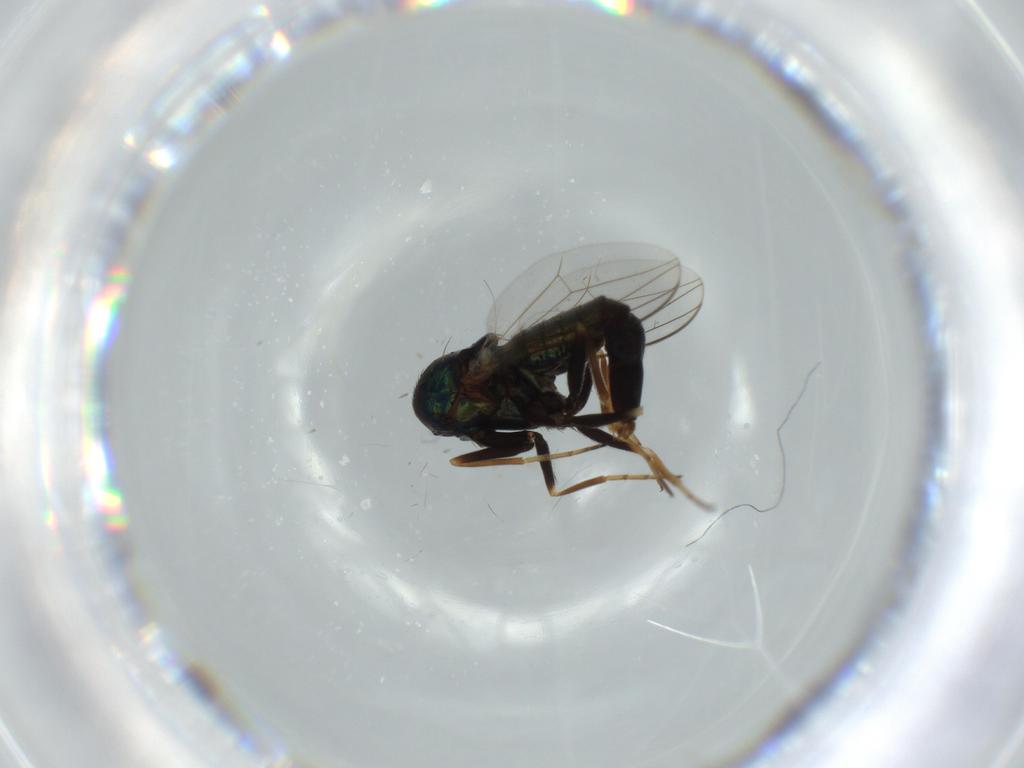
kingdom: Animalia
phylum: Arthropoda
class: Insecta
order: Diptera
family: Dolichopodidae
